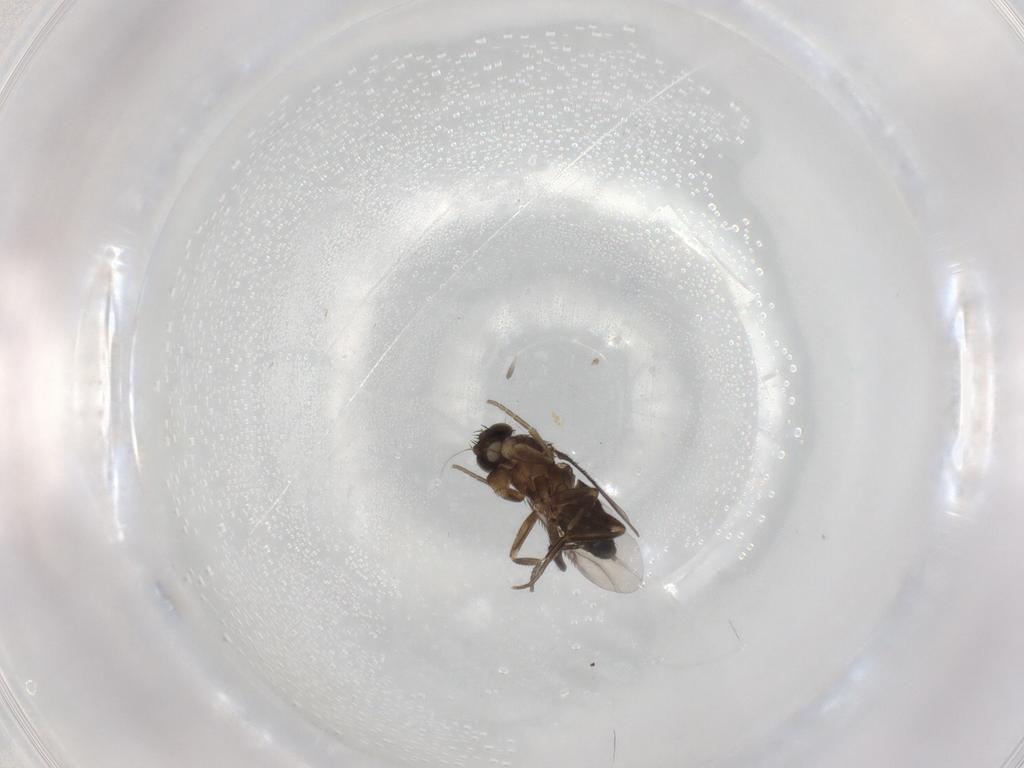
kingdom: Animalia
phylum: Arthropoda
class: Insecta
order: Diptera
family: Phoridae
